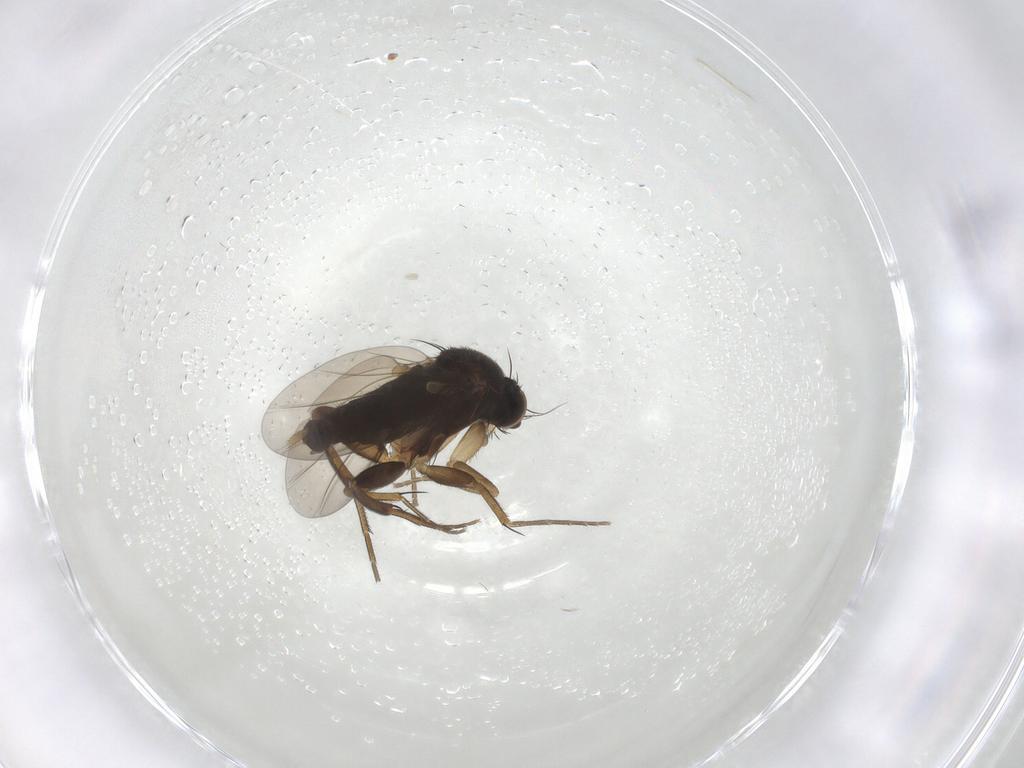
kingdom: Animalia
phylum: Arthropoda
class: Insecta
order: Diptera
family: Phoridae
